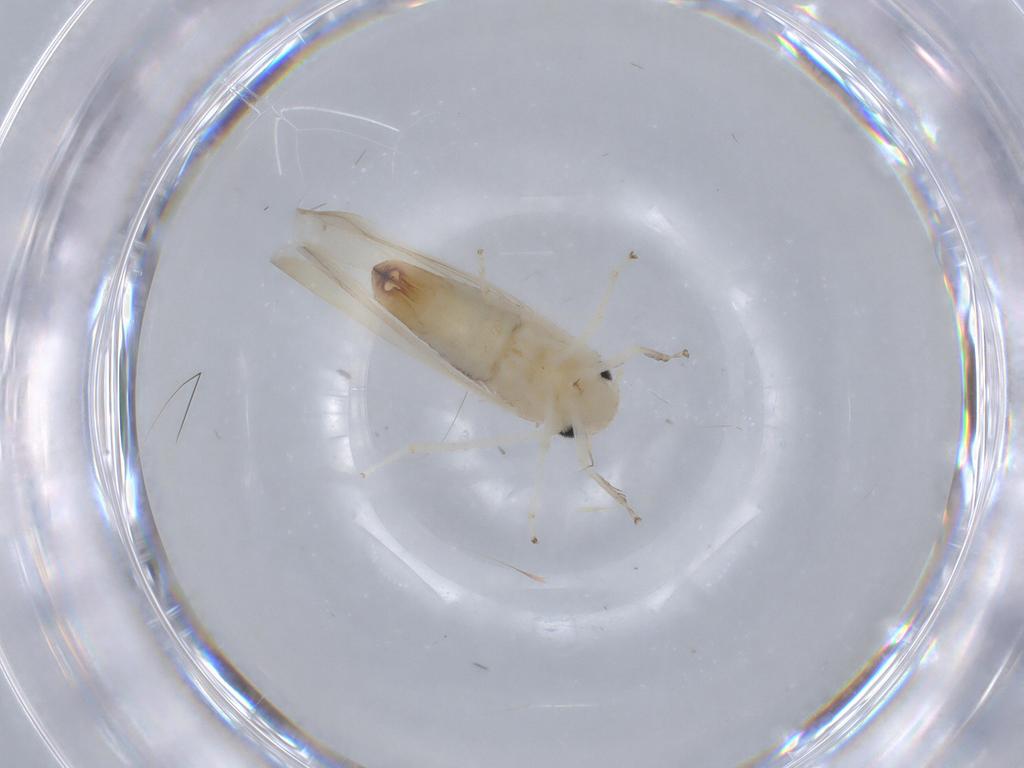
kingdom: Animalia
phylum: Arthropoda
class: Insecta
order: Hemiptera
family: Cicadellidae
